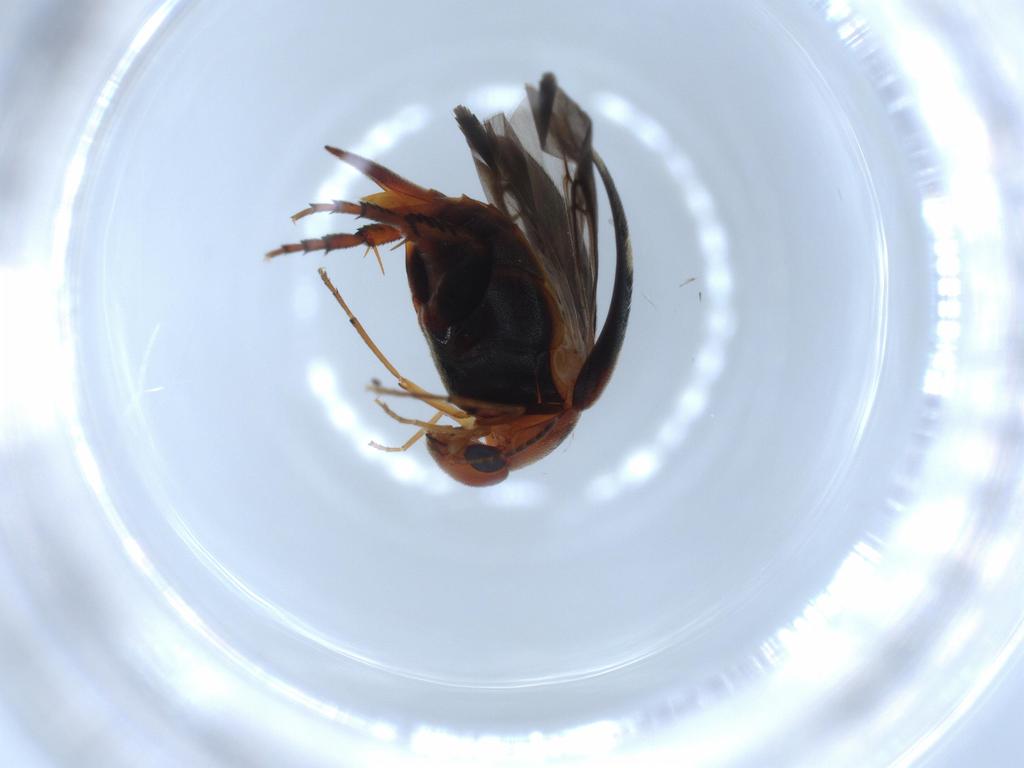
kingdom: Animalia
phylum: Arthropoda
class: Insecta
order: Coleoptera
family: Mordellidae
